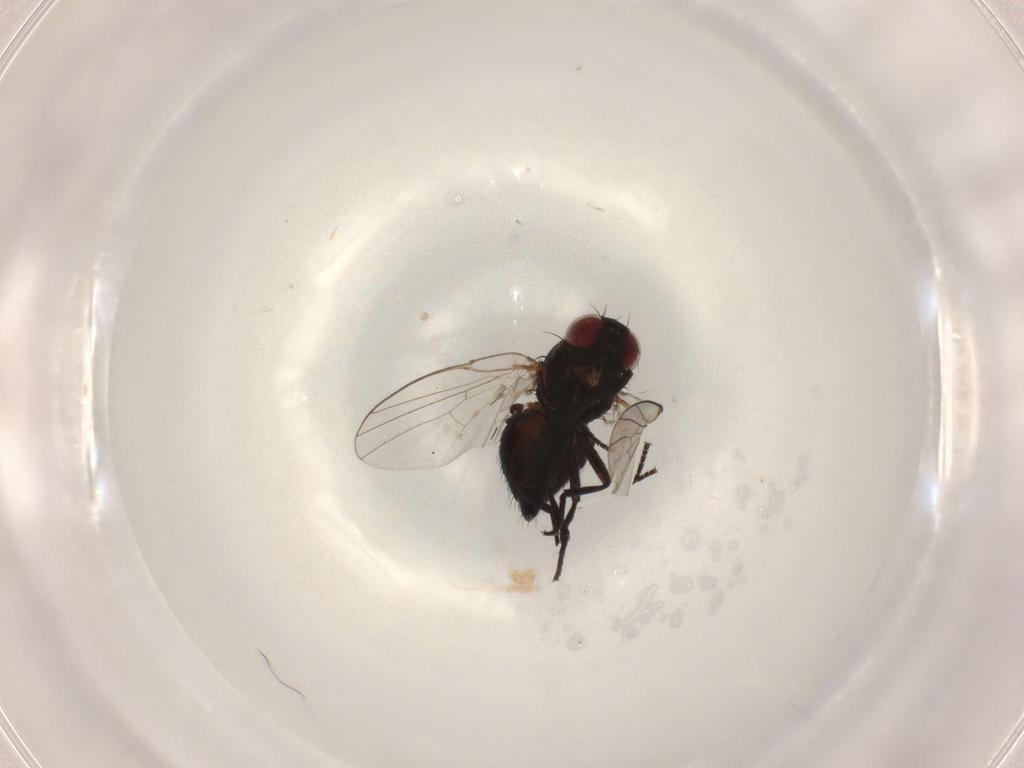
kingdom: Animalia
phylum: Arthropoda
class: Insecta
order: Diptera
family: Agromyzidae
